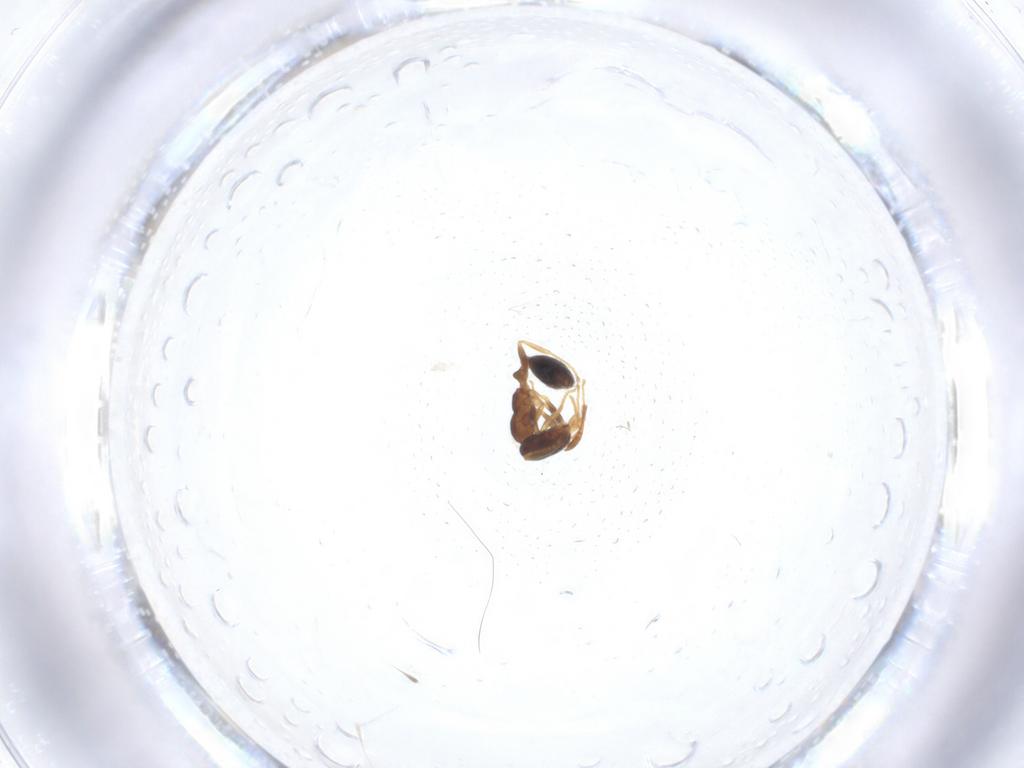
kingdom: Animalia
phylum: Arthropoda
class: Insecta
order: Hymenoptera
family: Formicidae
